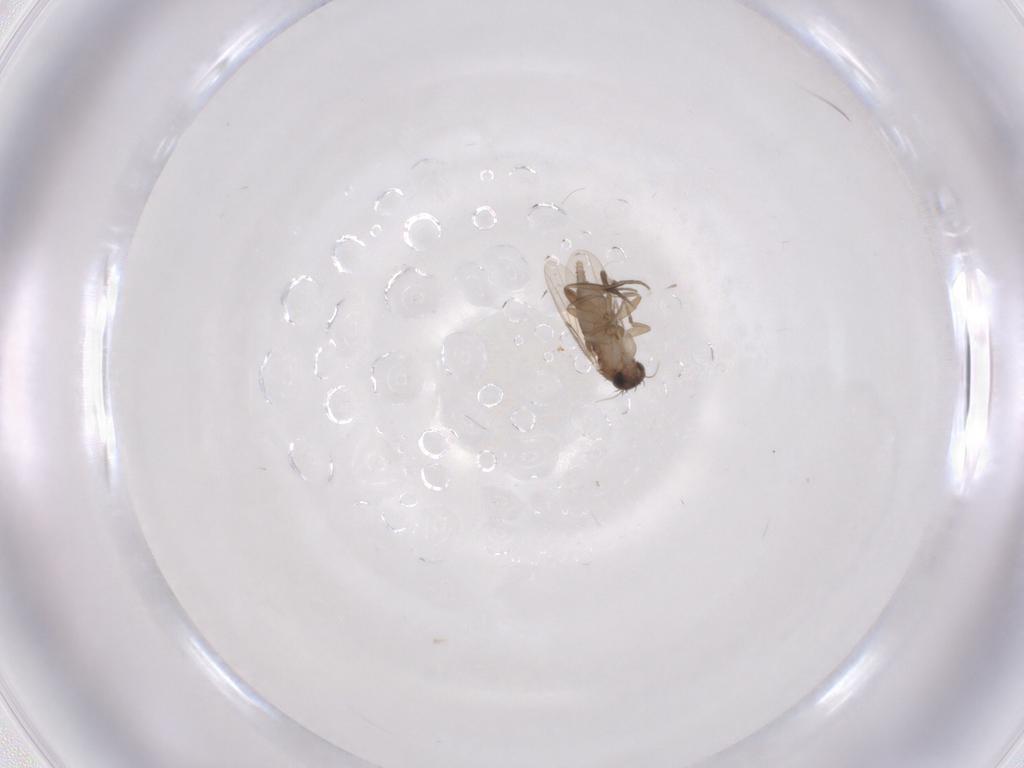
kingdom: Animalia
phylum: Arthropoda
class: Insecta
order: Diptera
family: Phoridae
